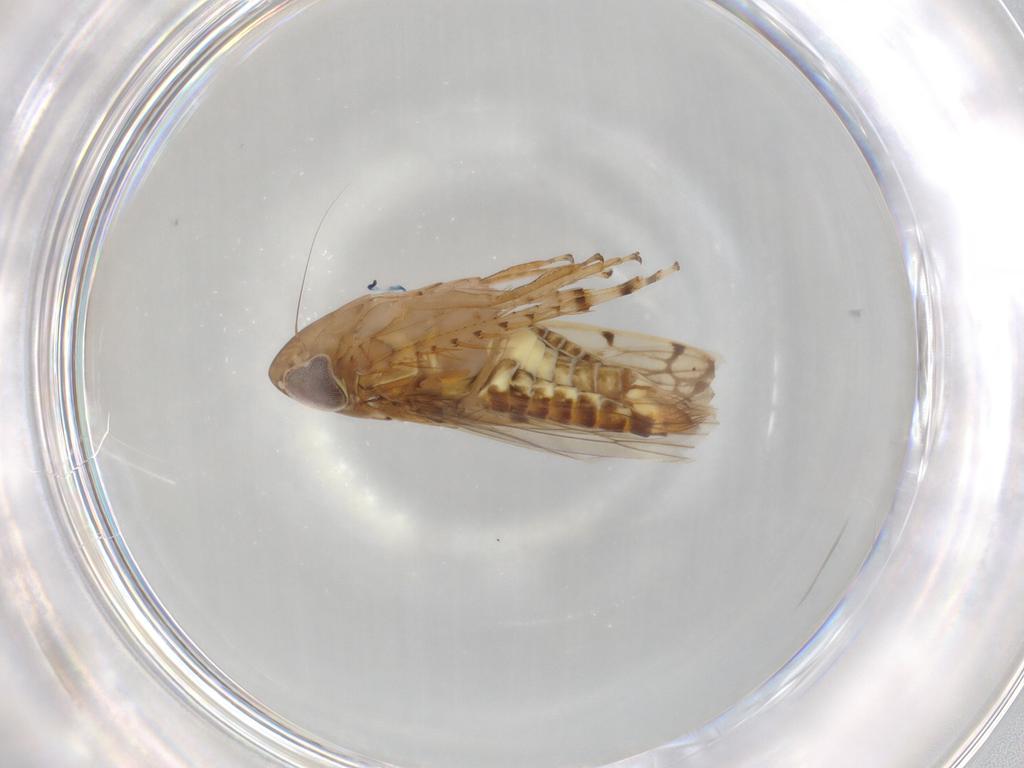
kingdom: Animalia
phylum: Arthropoda
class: Insecta
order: Hemiptera
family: Cicadellidae
